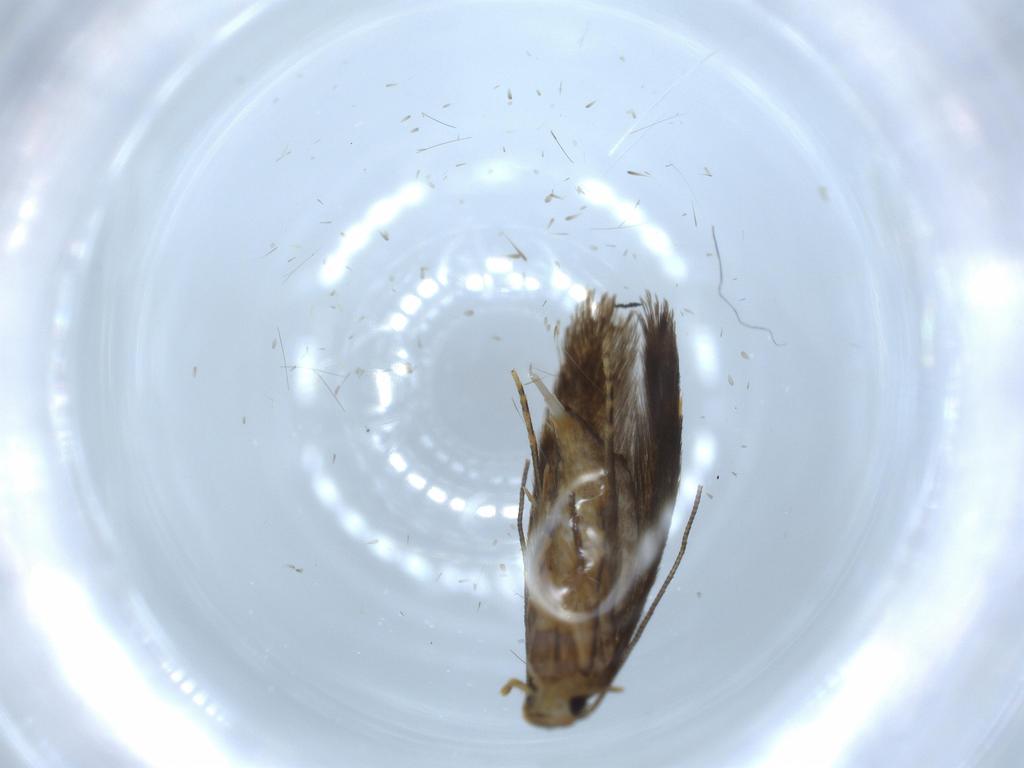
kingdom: Animalia
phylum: Arthropoda
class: Insecta
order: Lepidoptera
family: Tineidae
